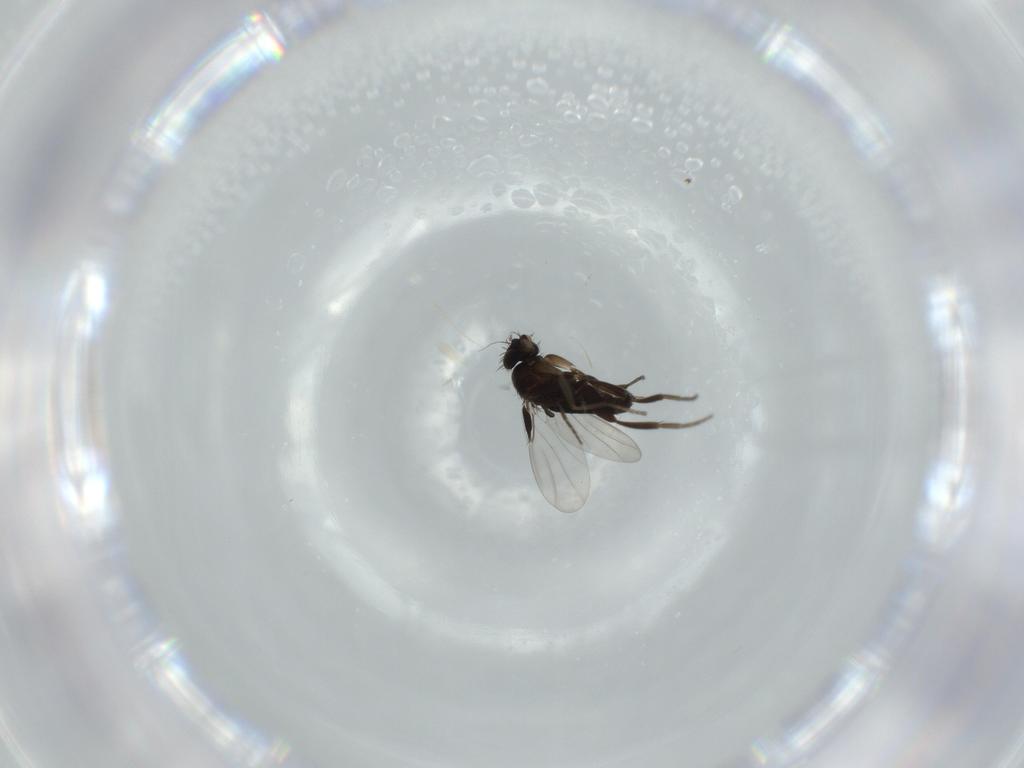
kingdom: Animalia
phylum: Arthropoda
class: Insecta
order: Diptera
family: Phoridae
